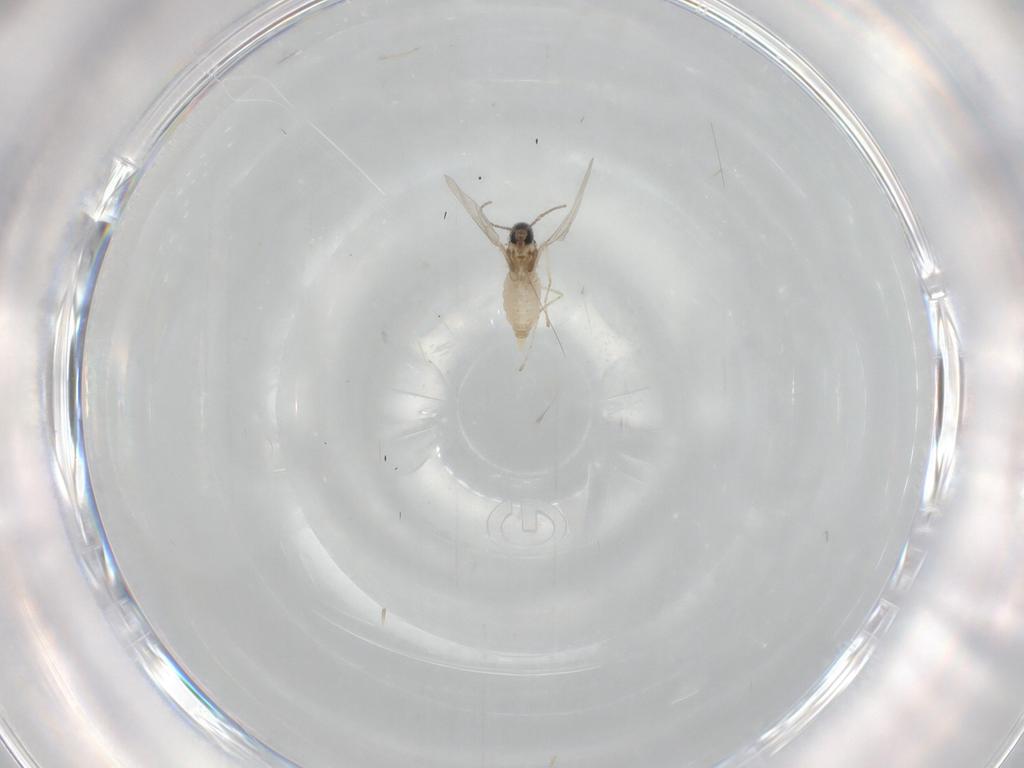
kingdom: Animalia
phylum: Arthropoda
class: Insecta
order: Diptera
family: Cecidomyiidae
